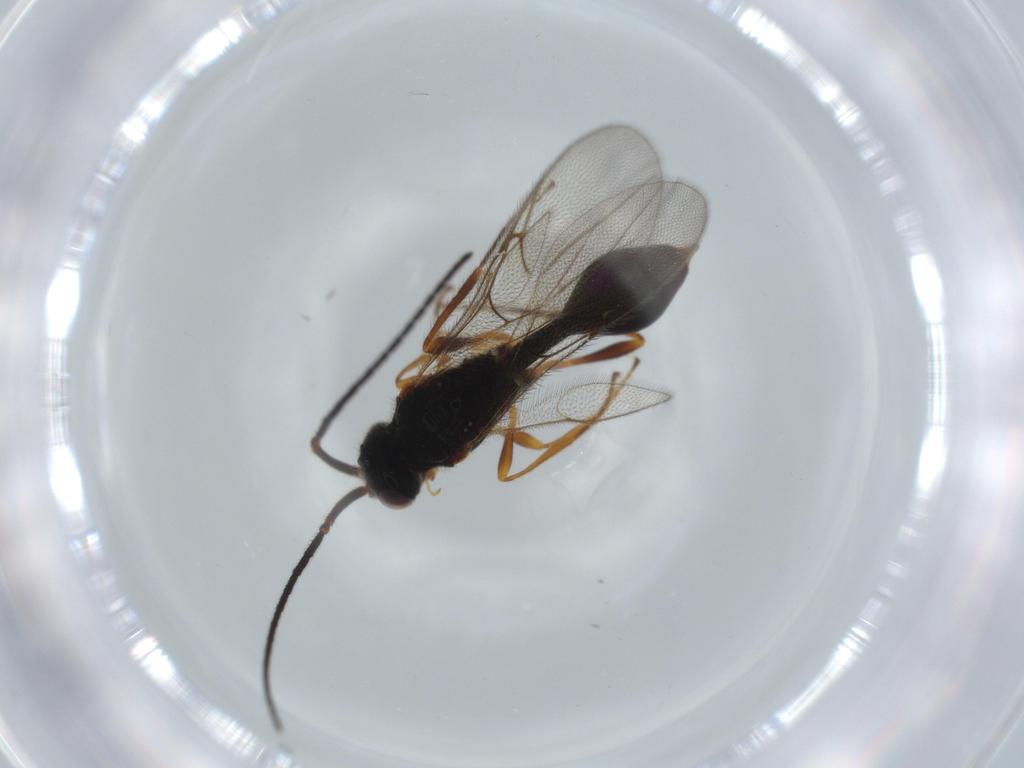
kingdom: Animalia
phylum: Arthropoda
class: Insecta
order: Hymenoptera
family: Diapriidae
